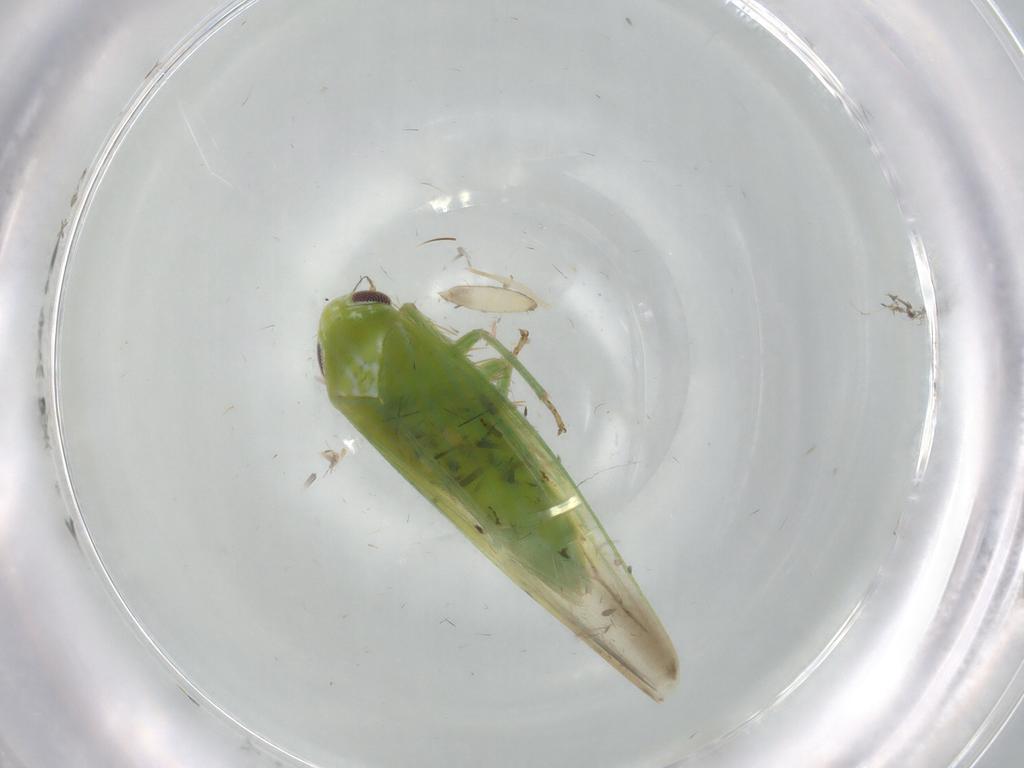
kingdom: Animalia
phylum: Arthropoda
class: Insecta
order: Hemiptera
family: Cicadellidae
